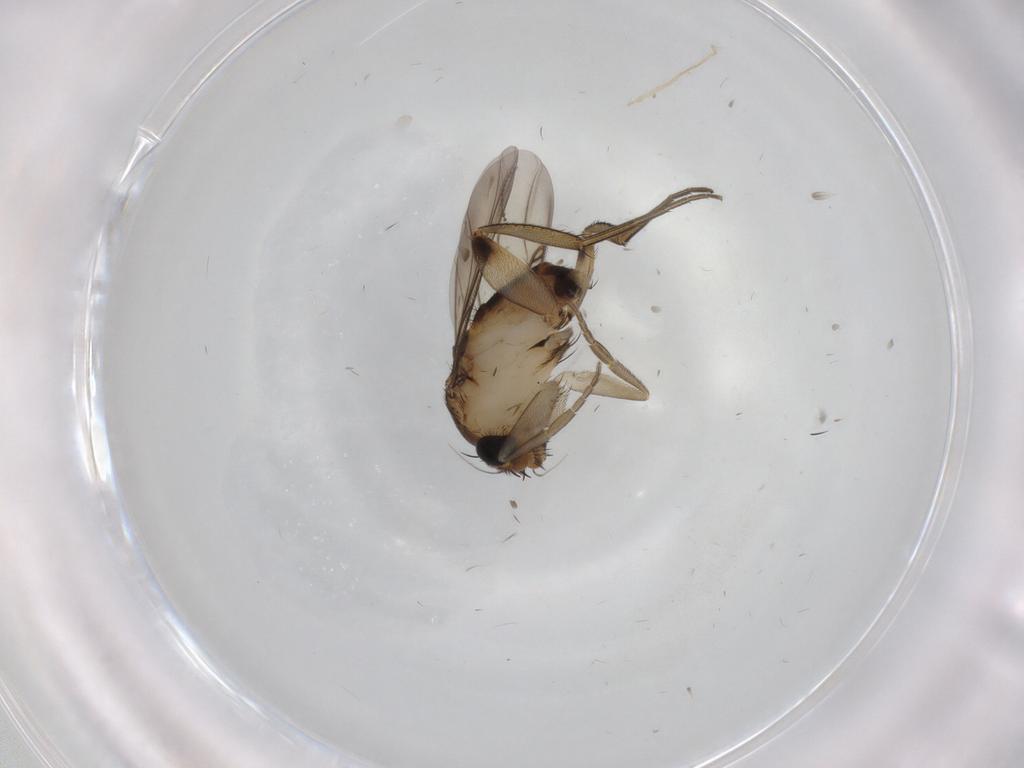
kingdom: Animalia
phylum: Arthropoda
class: Insecta
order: Diptera
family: Phoridae
